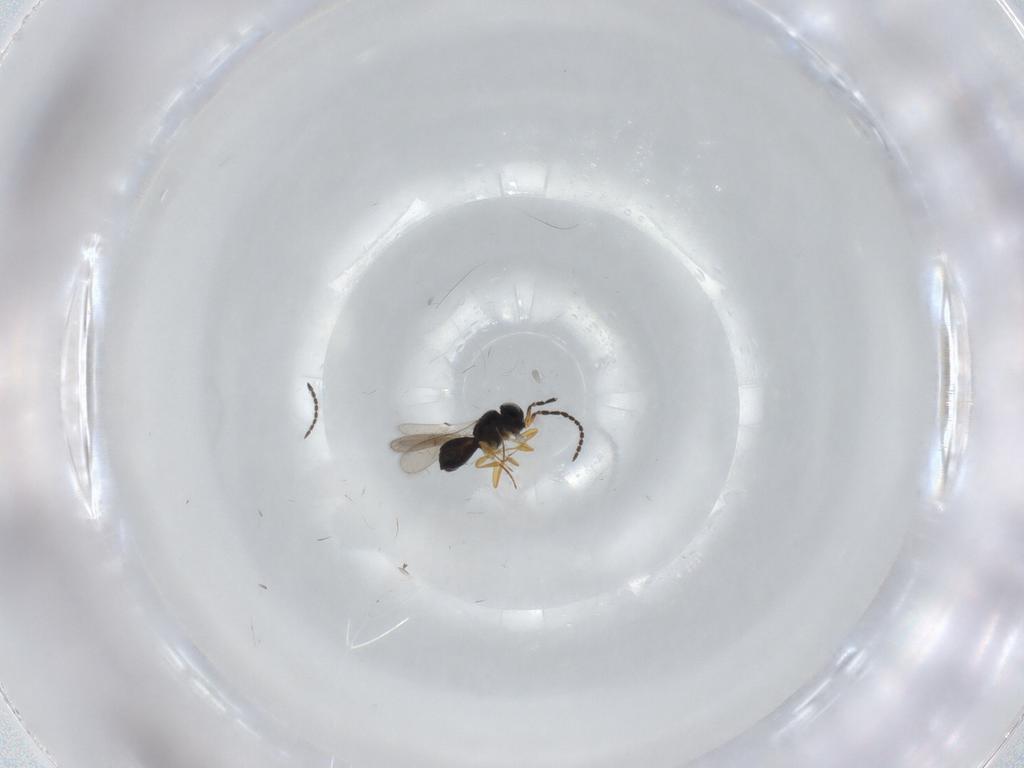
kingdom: Animalia
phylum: Arthropoda
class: Insecta
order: Hymenoptera
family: Scelionidae
